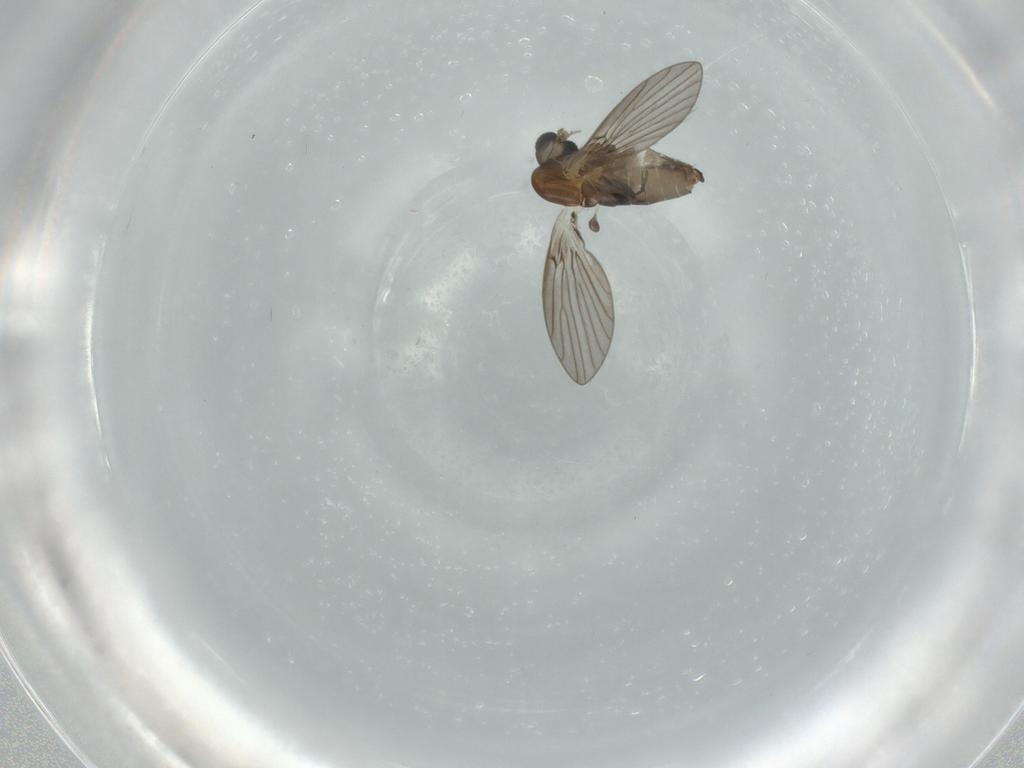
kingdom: Animalia
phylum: Arthropoda
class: Insecta
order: Diptera
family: Psychodidae
